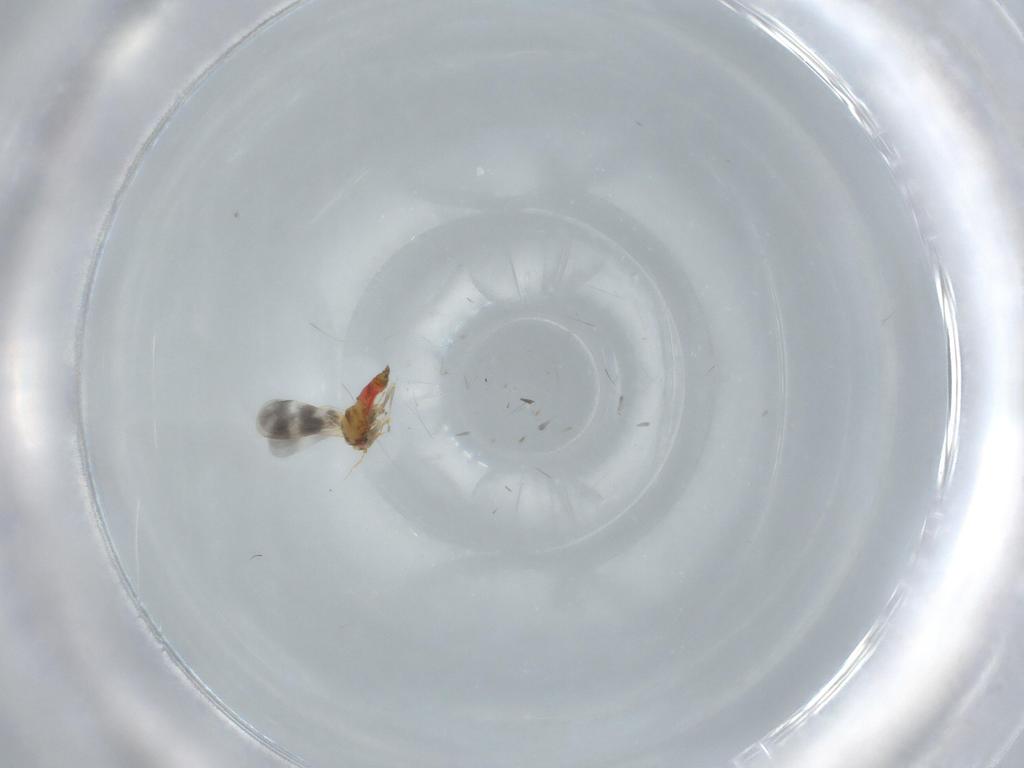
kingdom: Animalia
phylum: Arthropoda
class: Insecta
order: Hemiptera
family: Aleyrodidae
